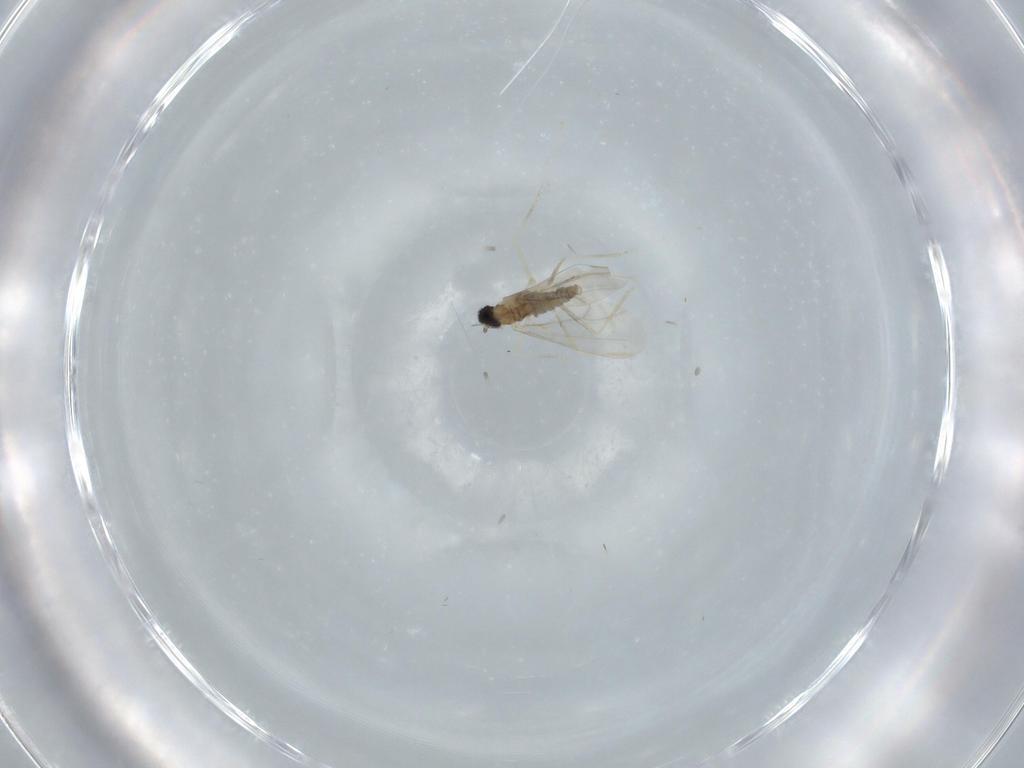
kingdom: Animalia
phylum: Arthropoda
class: Insecta
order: Diptera
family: Cecidomyiidae
